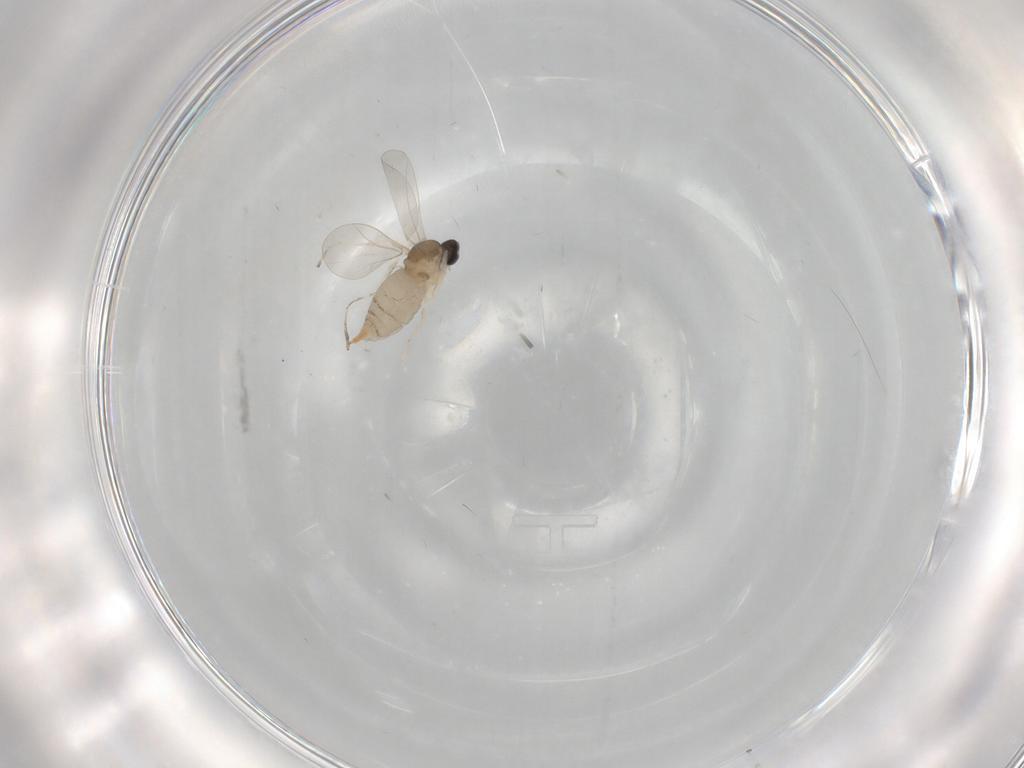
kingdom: Animalia
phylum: Arthropoda
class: Insecta
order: Diptera
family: Cecidomyiidae
